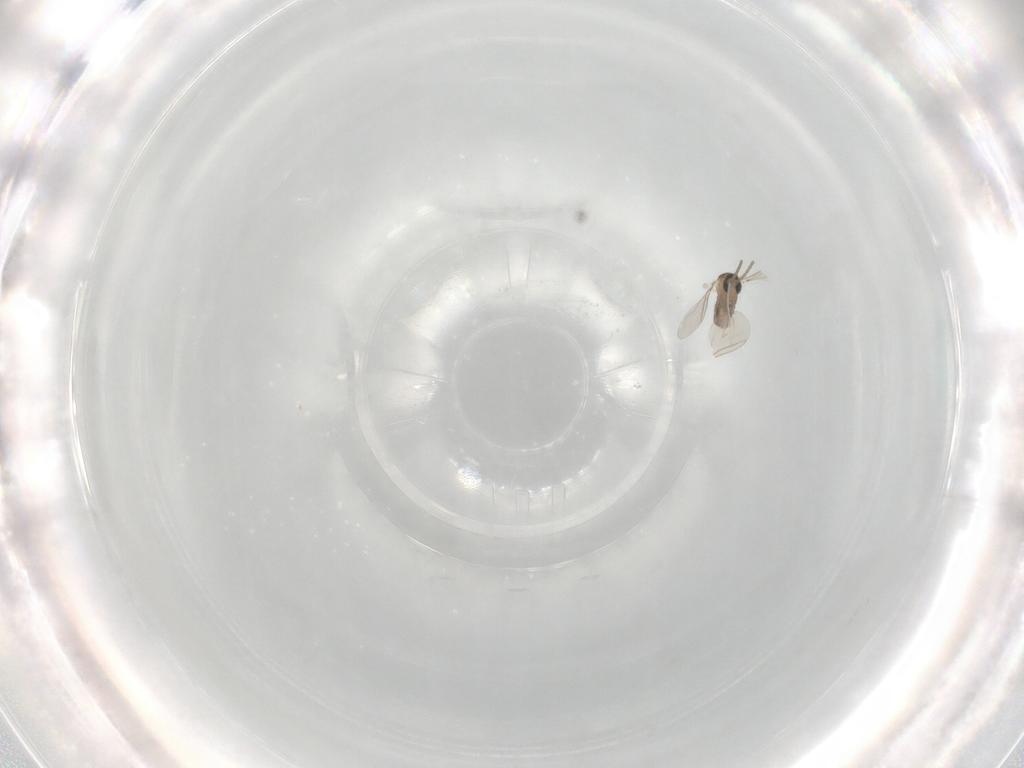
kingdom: Animalia
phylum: Arthropoda
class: Insecta
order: Diptera
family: Cecidomyiidae
